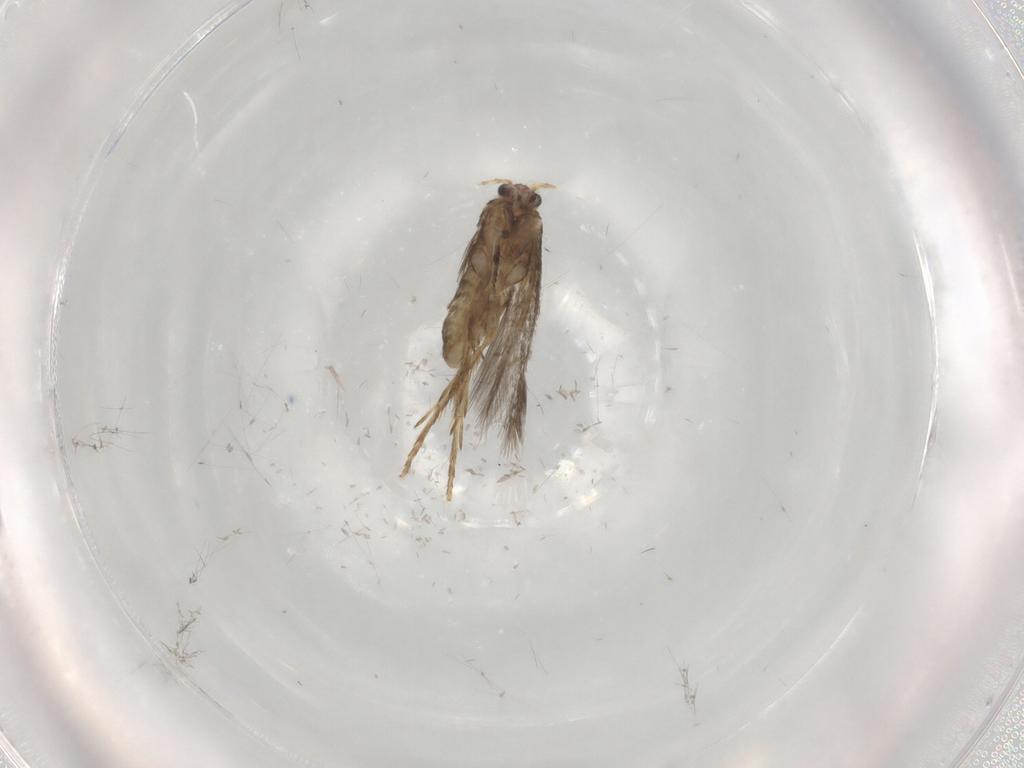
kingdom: Animalia
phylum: Arthropoda
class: Insecta
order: Lepidoptera
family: Nepticulidae
